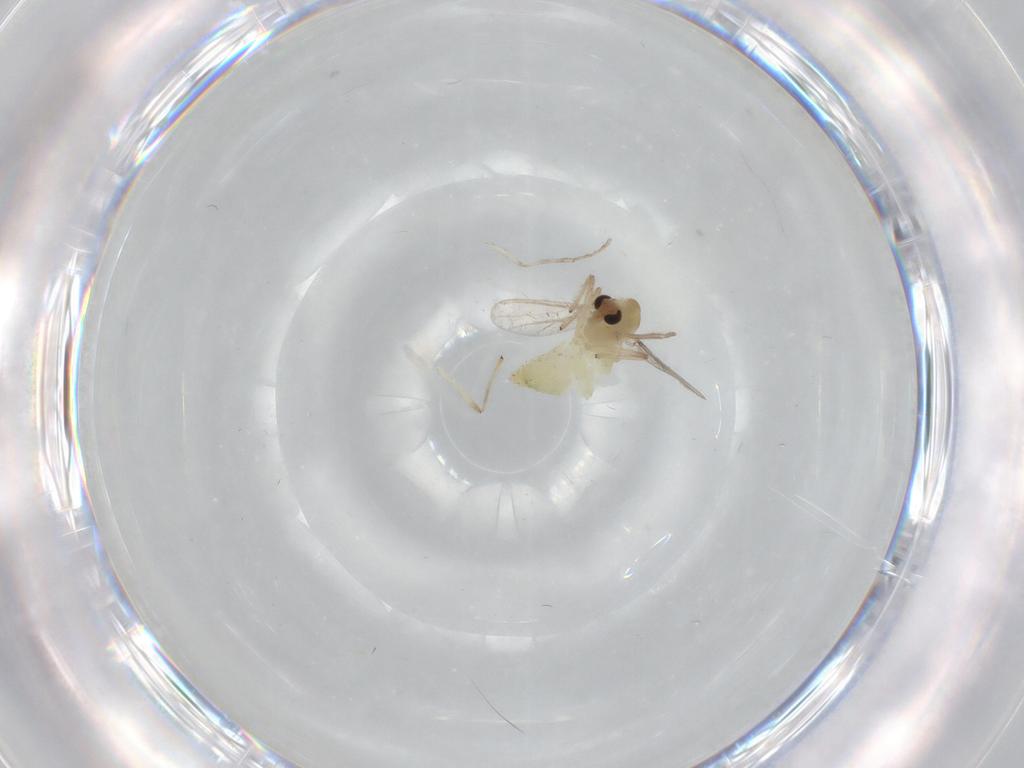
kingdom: Animalia
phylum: Arthropoda
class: Insecta
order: Diptera
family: Chironomidae
